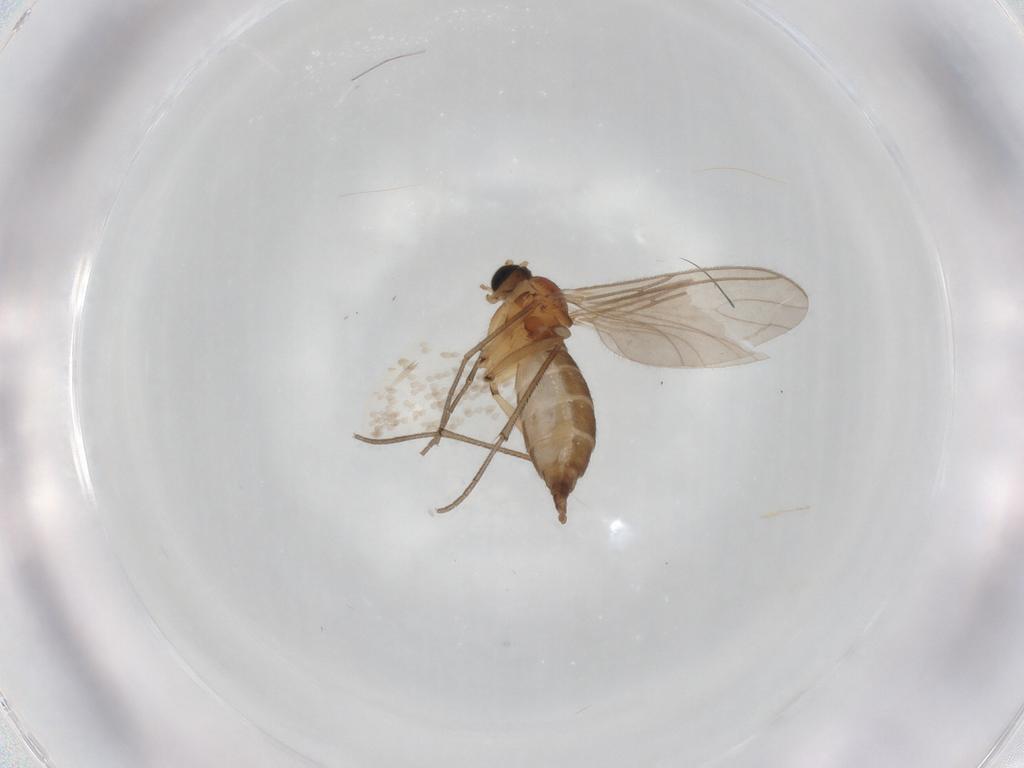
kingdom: Animalia
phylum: Arthropoda
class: Insecta
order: Diptera
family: Sciaridae
